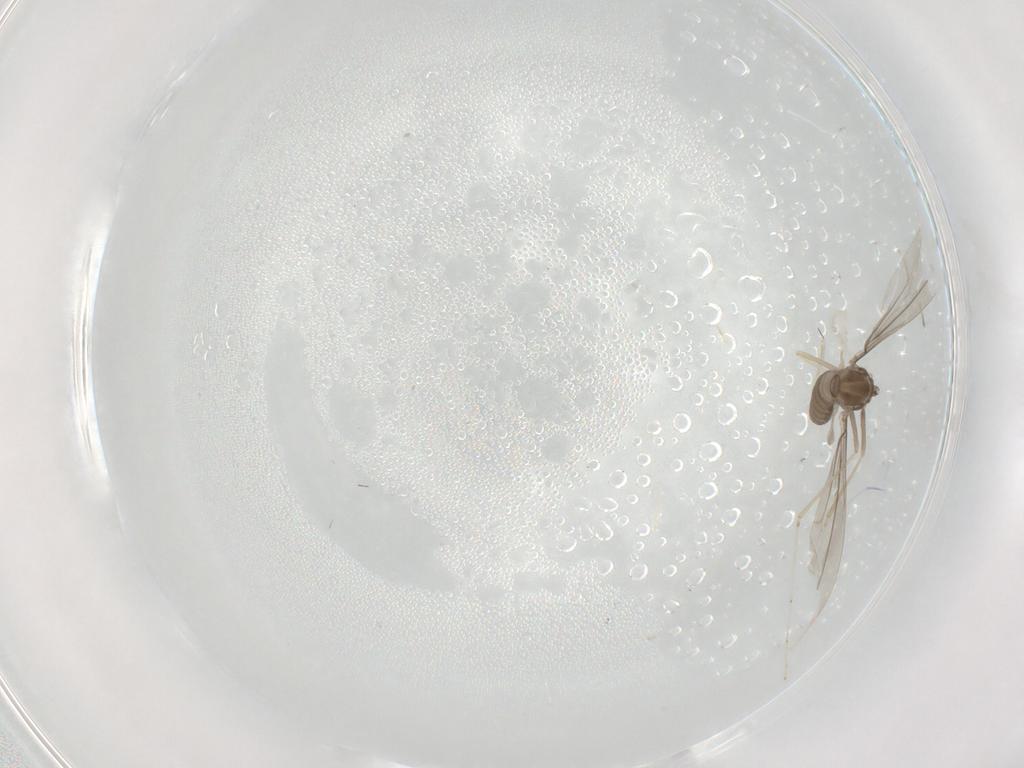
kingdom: Animalia
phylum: Arthropoda
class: Insecta
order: Diptera
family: Cecidomyiidae
